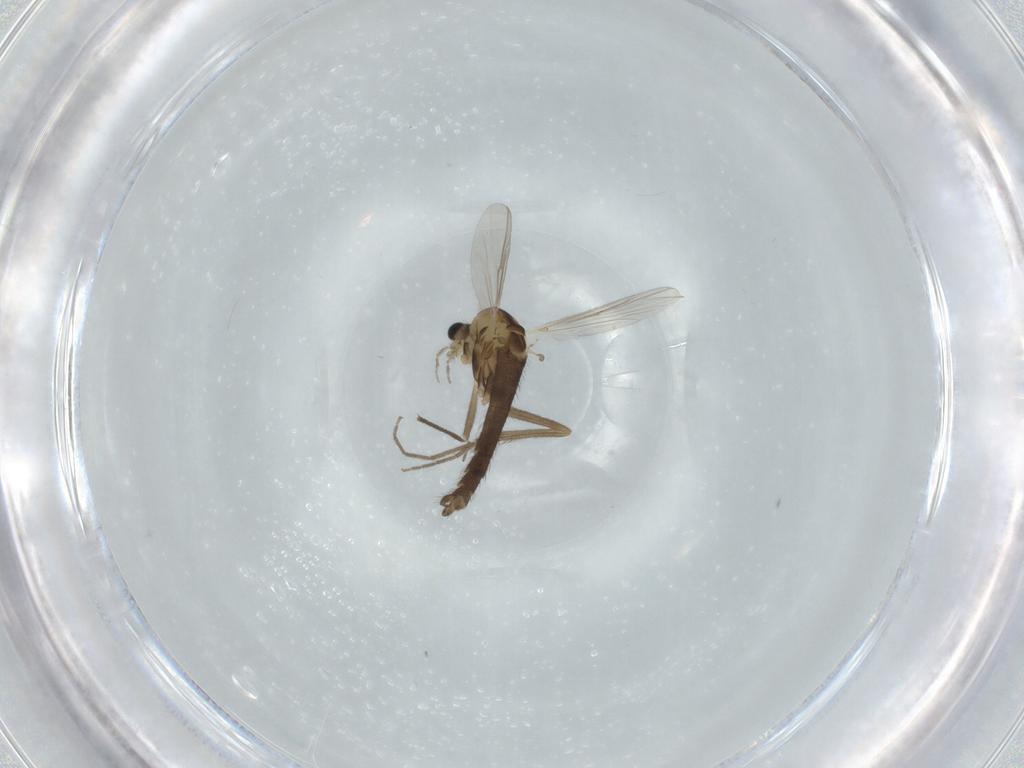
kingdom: Animalia
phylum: Arthropoda
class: Insecta
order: Diptera
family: Chironomidae
